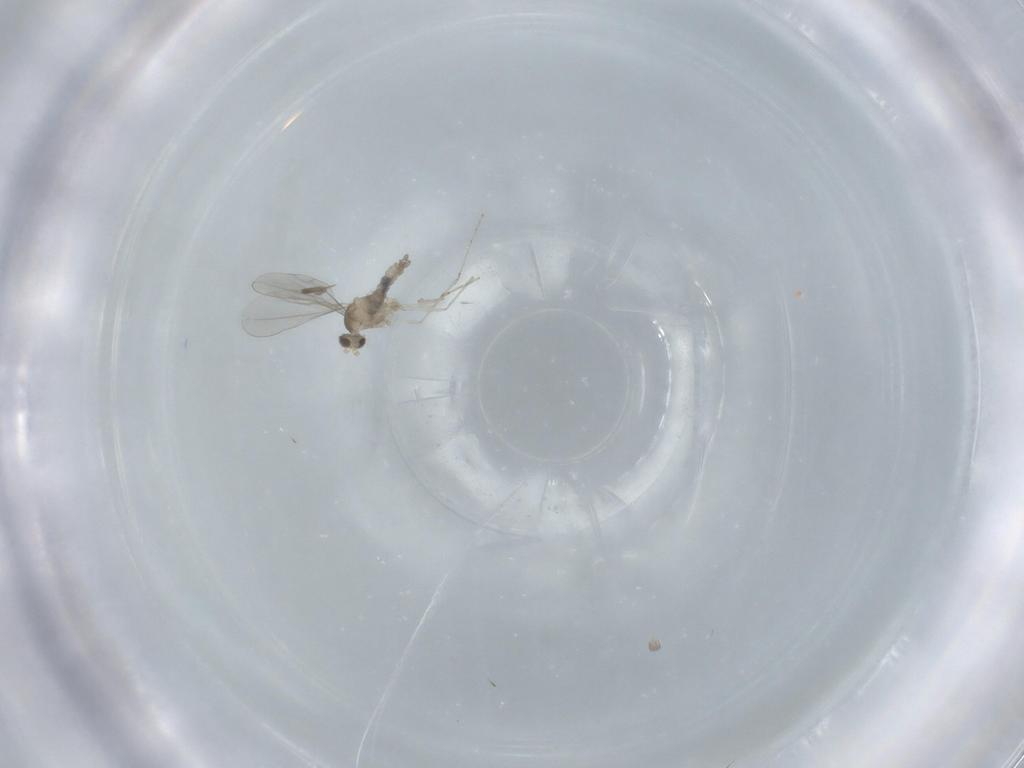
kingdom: Animalia
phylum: Arthropoda
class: Insecta
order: Diptera
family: Cecidomyiidae
